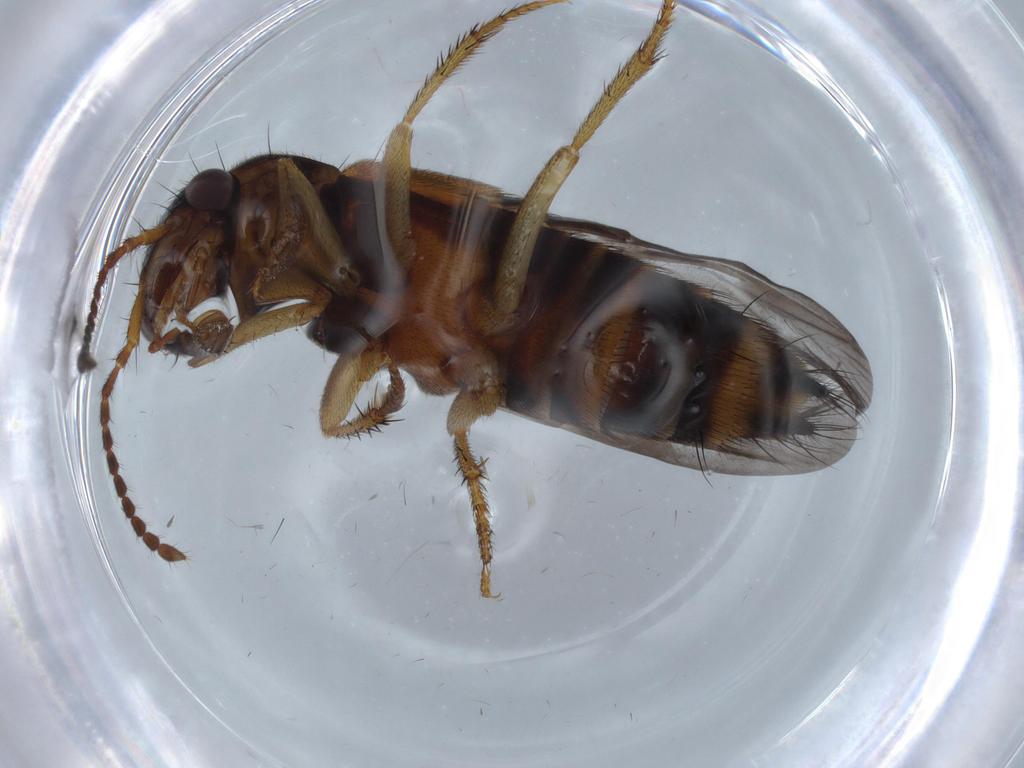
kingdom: Animalia
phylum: Arthropoda
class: Insecta
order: Coleoptera
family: Staphylinidae
